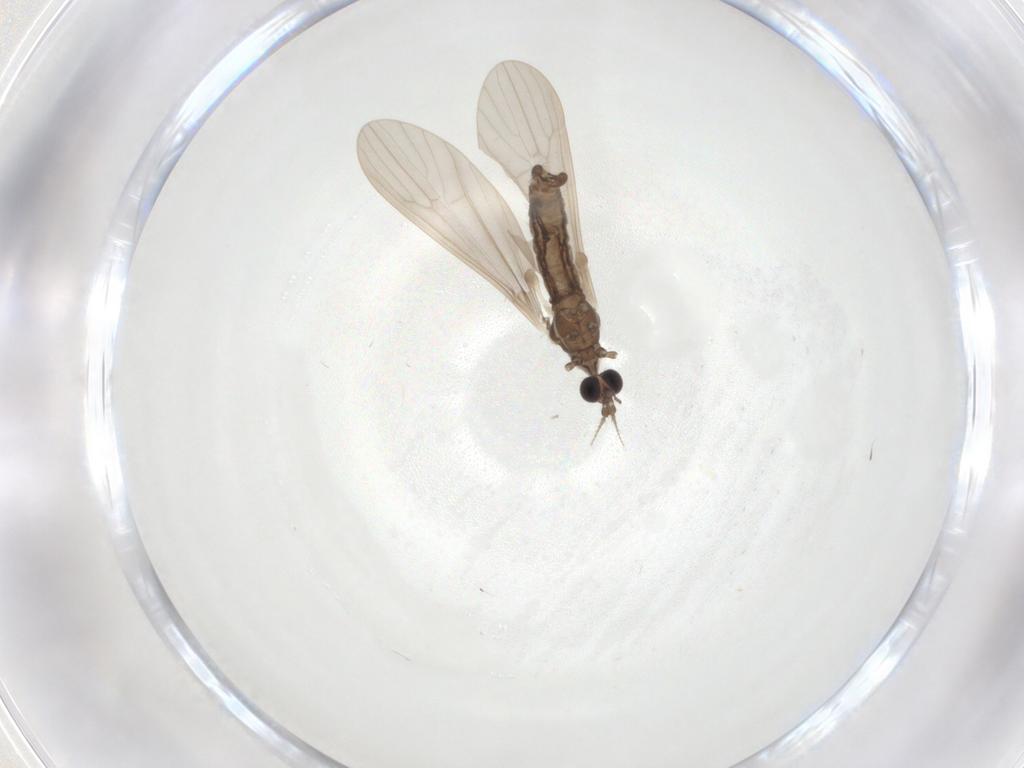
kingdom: Animalia
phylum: Arthropoda
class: Insecta
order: Diptera
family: Limoniidae
